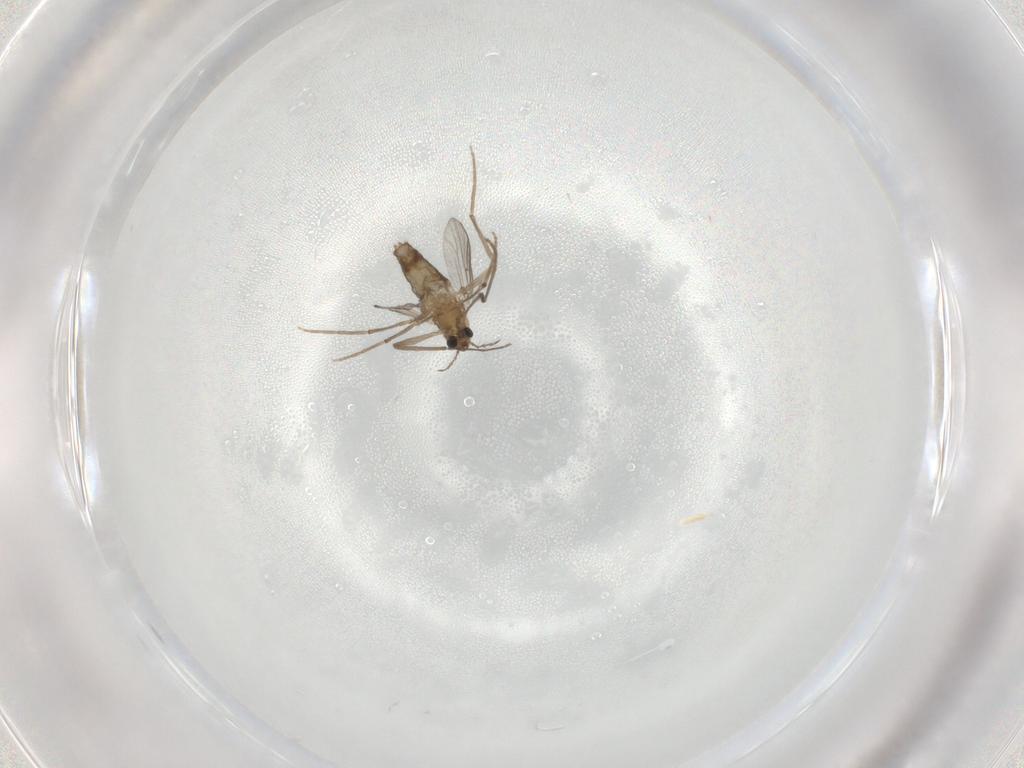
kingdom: Animalia
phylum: Arthropoda
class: Insecta
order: Diptera
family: Chironomidae
